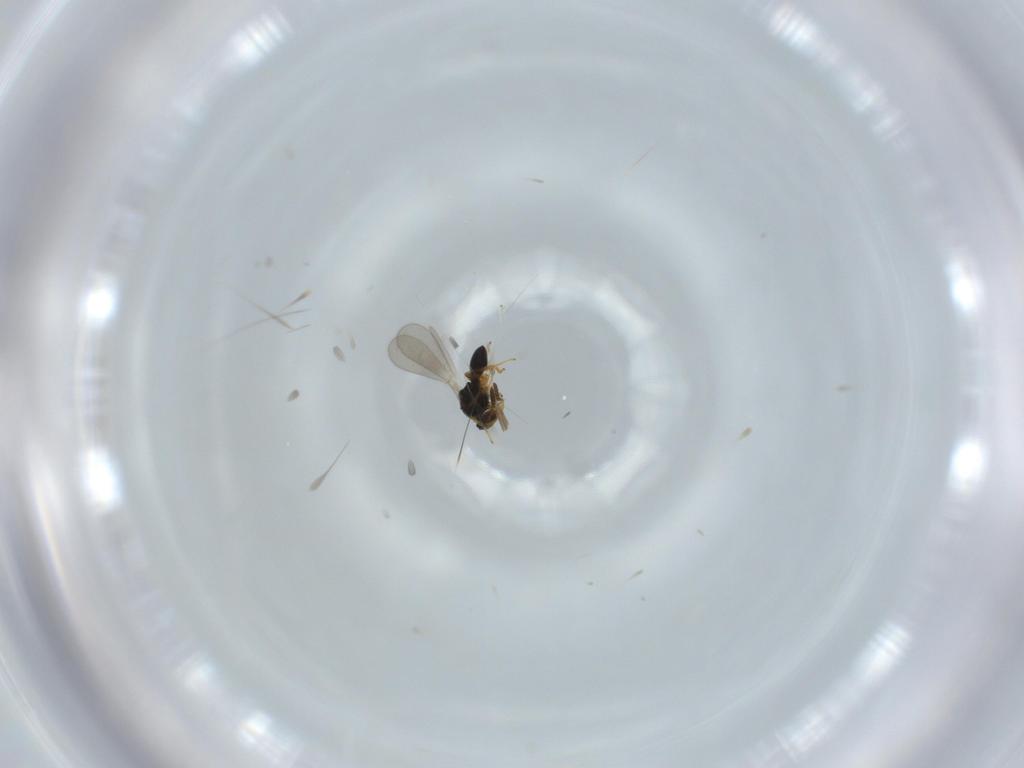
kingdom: Animalia
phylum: Arthropoda
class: Insecta
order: Hymenoptera
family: Platygastridae
